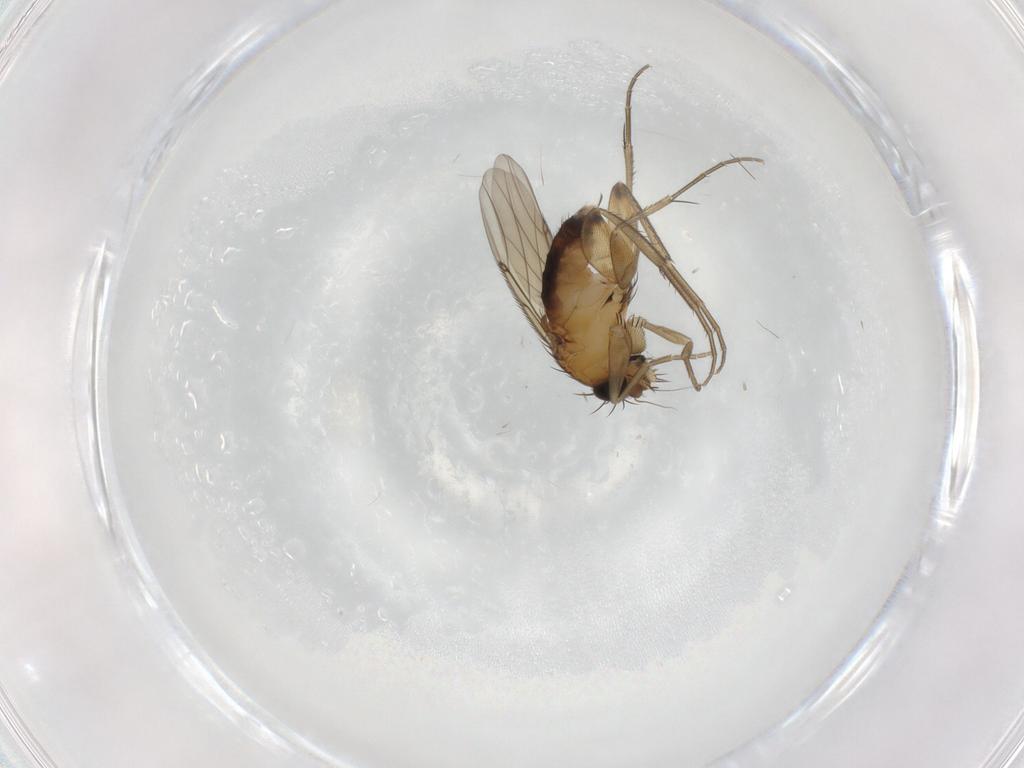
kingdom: Animalia
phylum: Arthropoda
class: Insecta
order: Diptera
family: Phoridae
